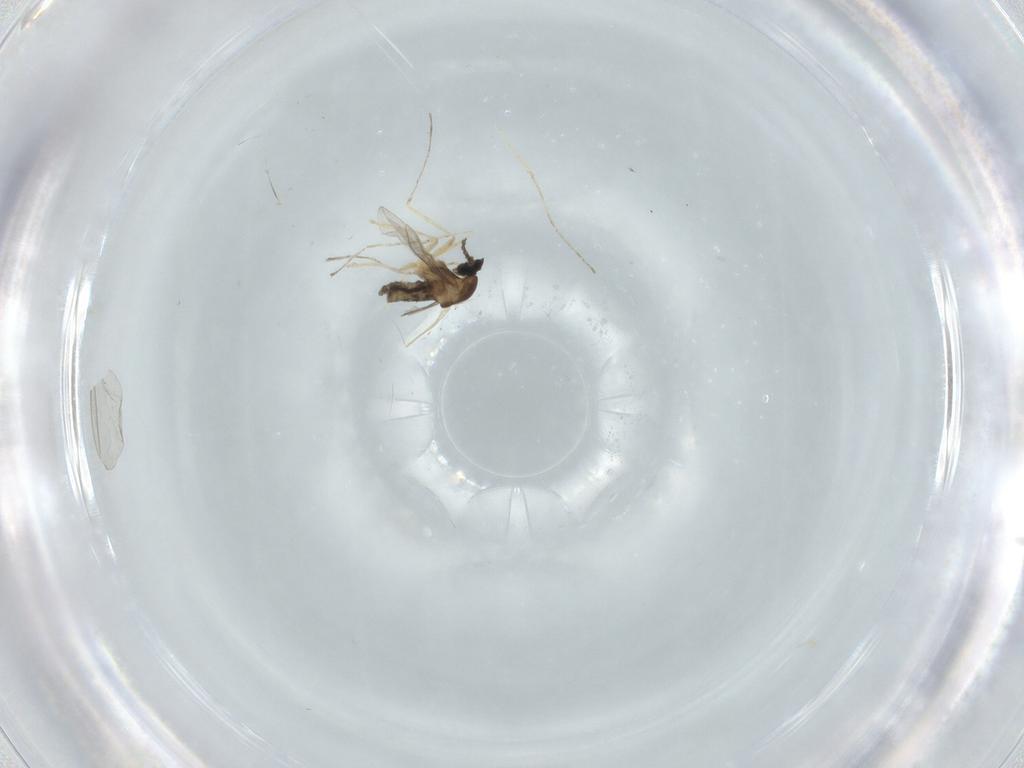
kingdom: Animalia
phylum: Arthropoda
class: Insecta
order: Diptera
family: Cecidomyiidae
